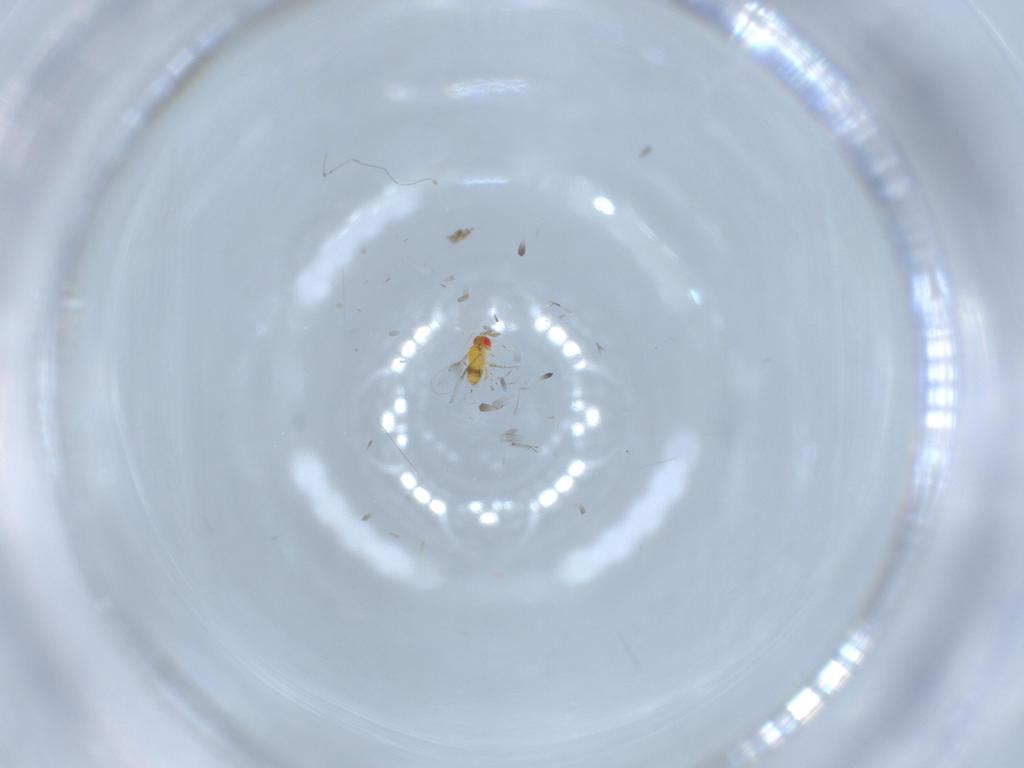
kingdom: Animalia
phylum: Arthropoda
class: Insecta
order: Hymenoptera
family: Trichogrammatidae
